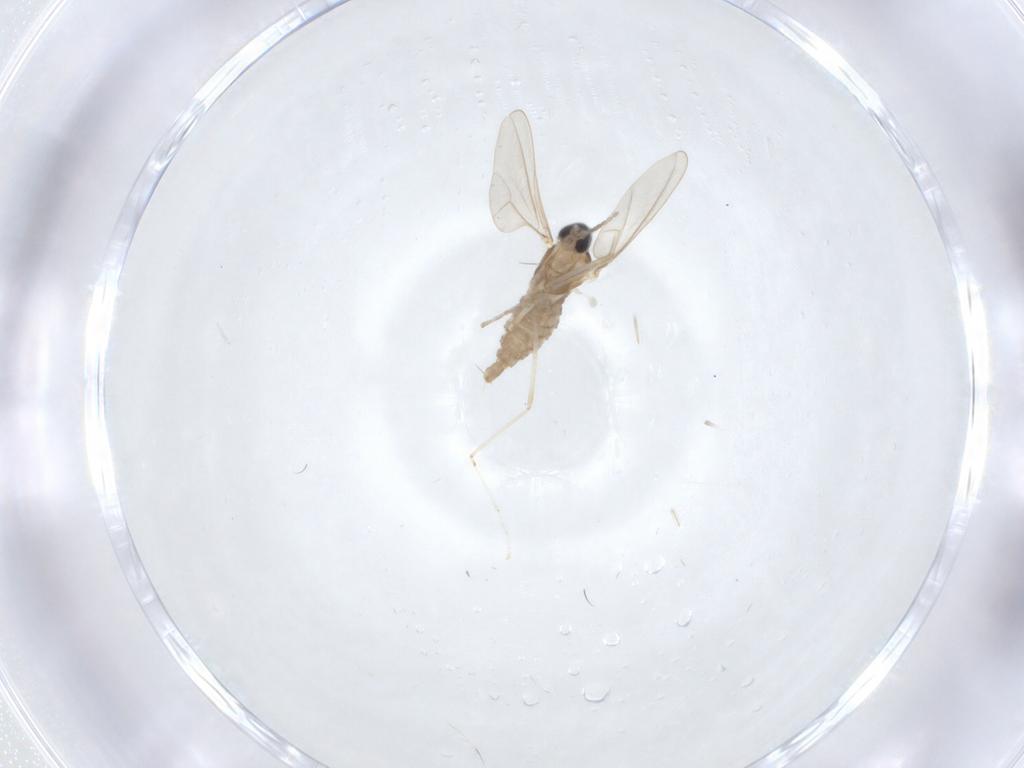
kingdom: Animalia
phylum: Arthropoda
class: Insecta
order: Diptera
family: Cecidomyiidae
